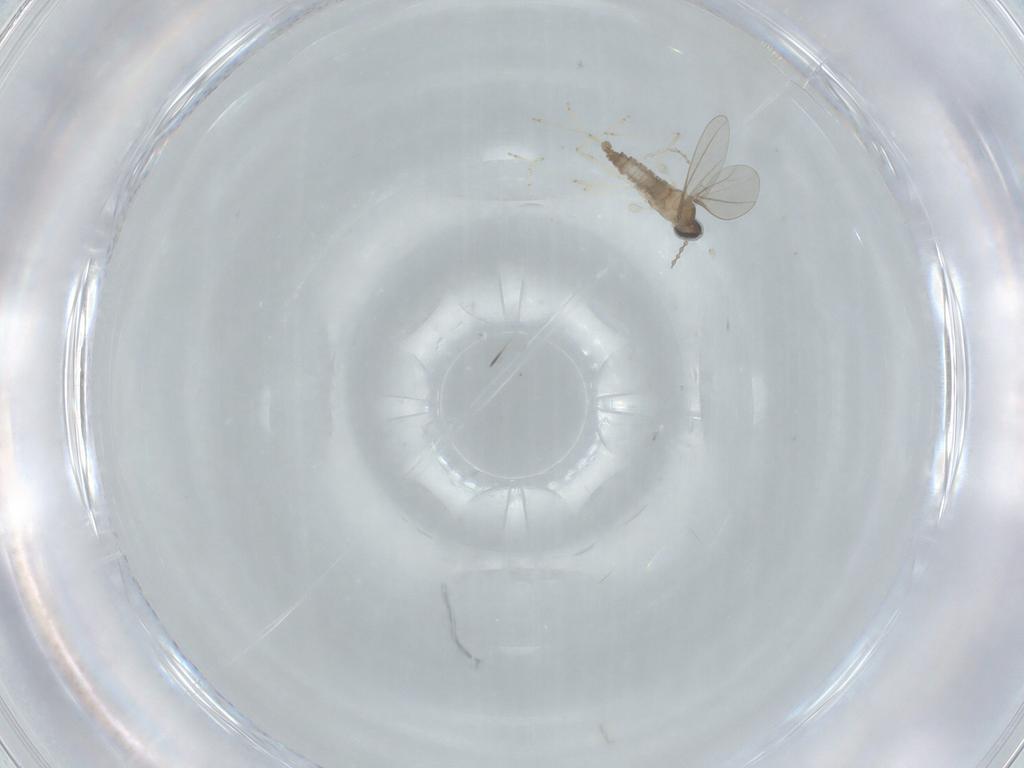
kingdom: Animalia
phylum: Arthropoda
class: Insecta
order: Diptera
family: Cecidomyiidae
